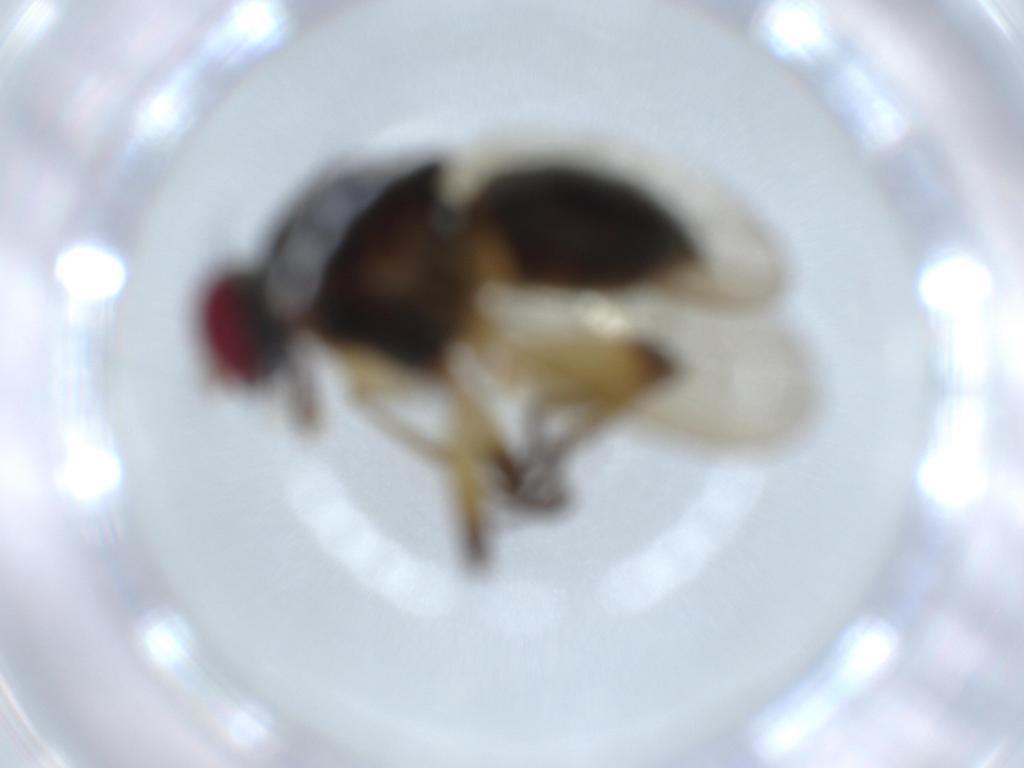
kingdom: Animalia
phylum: Arthropoda
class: Insecta
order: Diptera
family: Muscidae
